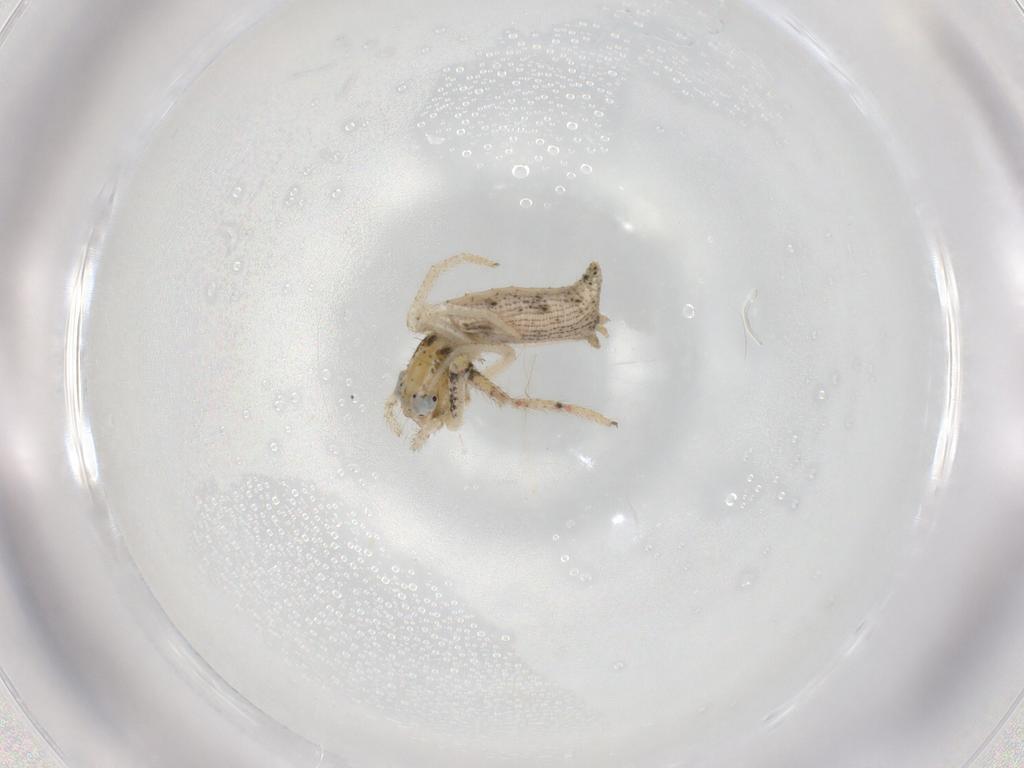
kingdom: Animalia
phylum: Arthropoda
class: Arachnida
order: Araneae
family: Thomisidae
